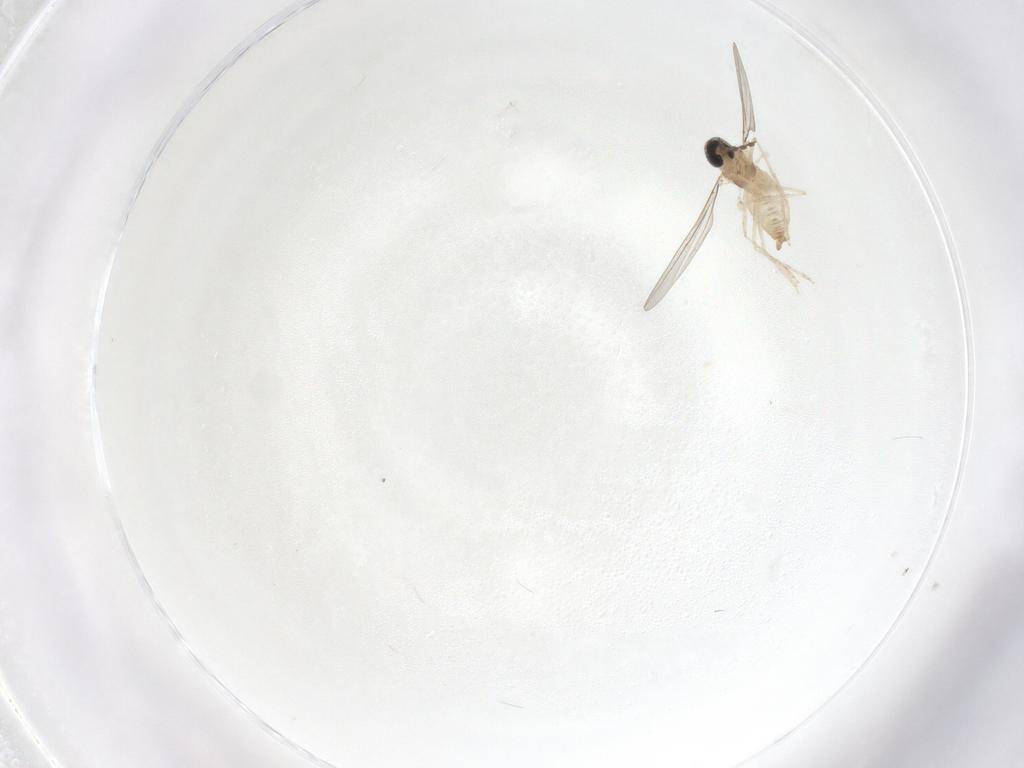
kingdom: Animalia
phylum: Arthropoda
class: Insecta
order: Diptera
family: Cecidomyiidae
